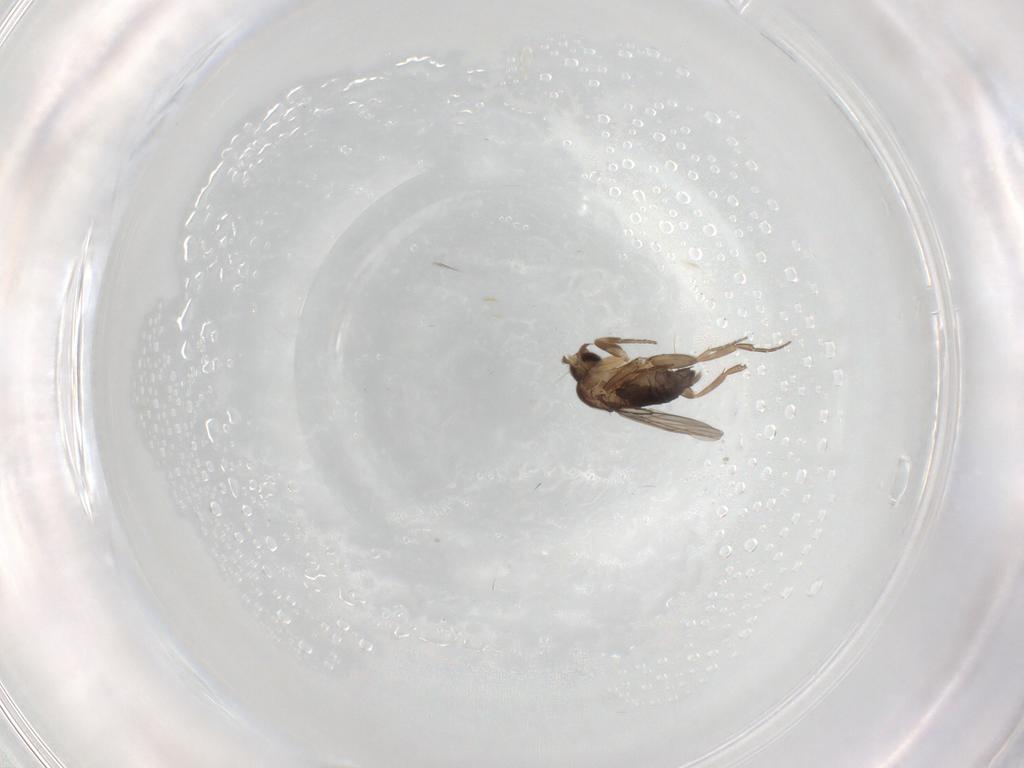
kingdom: Animalia
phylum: Arthropoda
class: Insecta
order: Diptera
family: Phoridae
